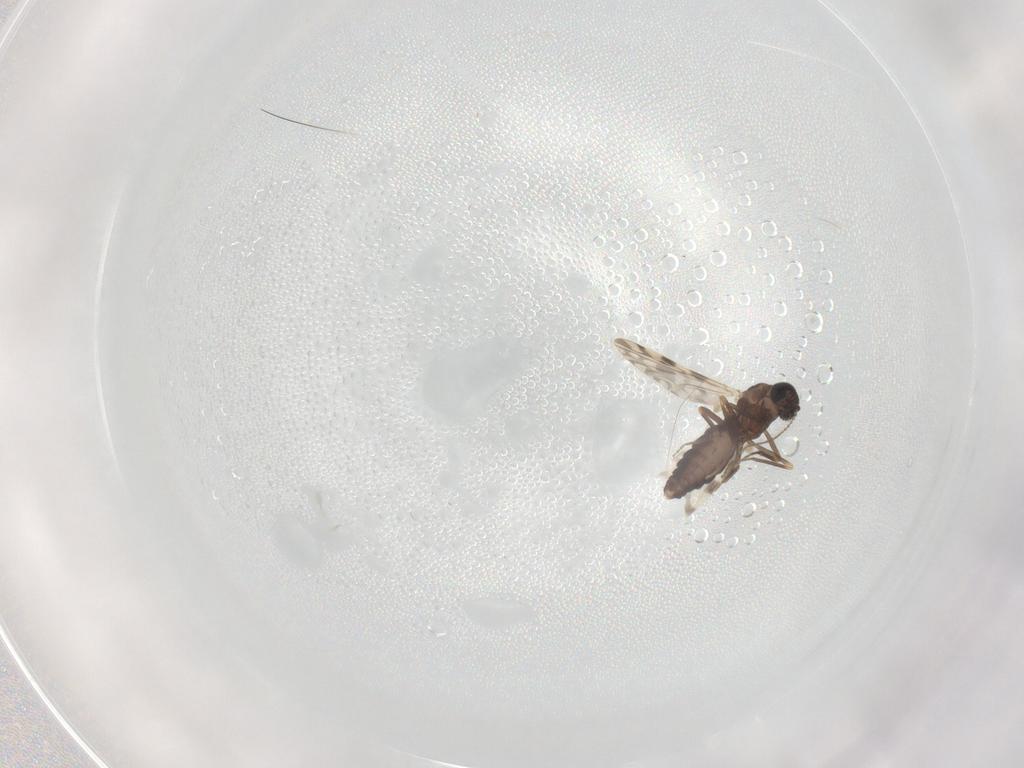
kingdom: Animalia
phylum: Arthropoda
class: Insecta
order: Diptera
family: Ceratopogonidae
